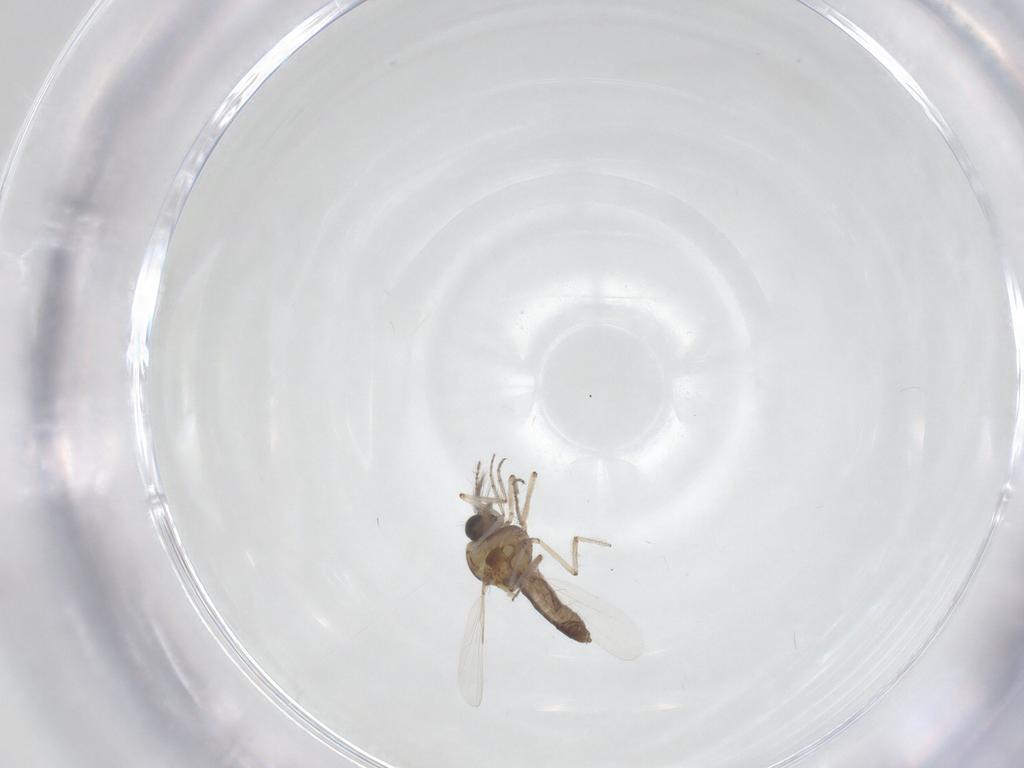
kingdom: Animalia
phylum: Arthropoda
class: Insecta
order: Diptera
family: Ceratopogonidae
